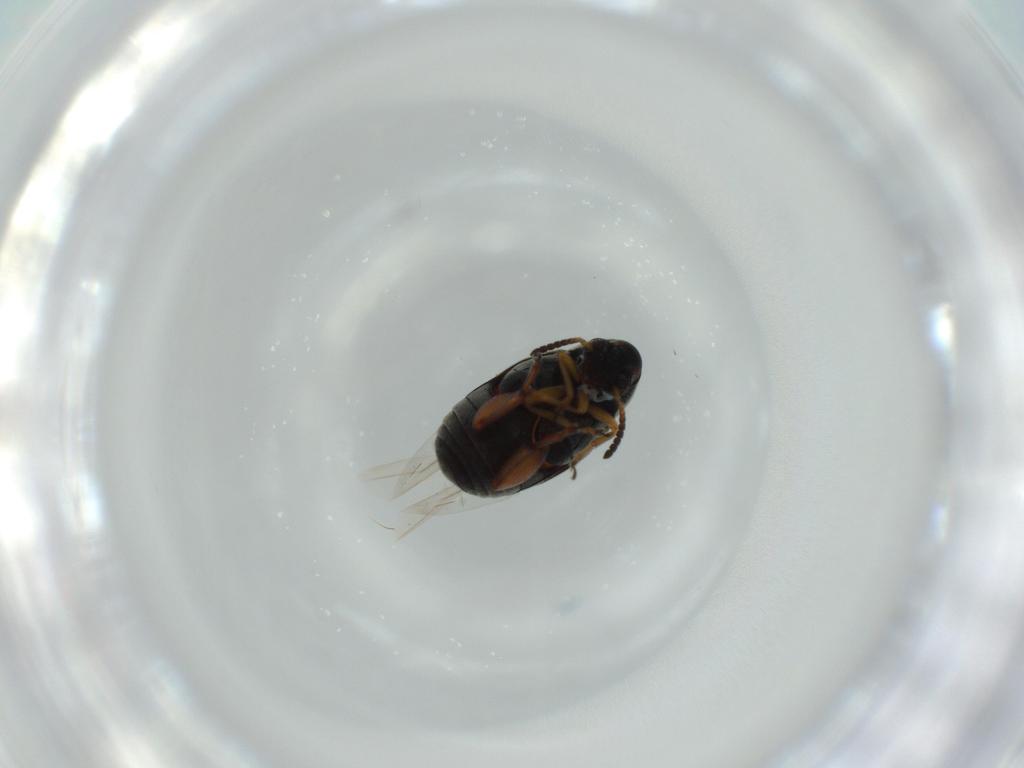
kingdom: Animalia
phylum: Arthropoda
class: Insecta
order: Coleoptera
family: Chrysomelidae
